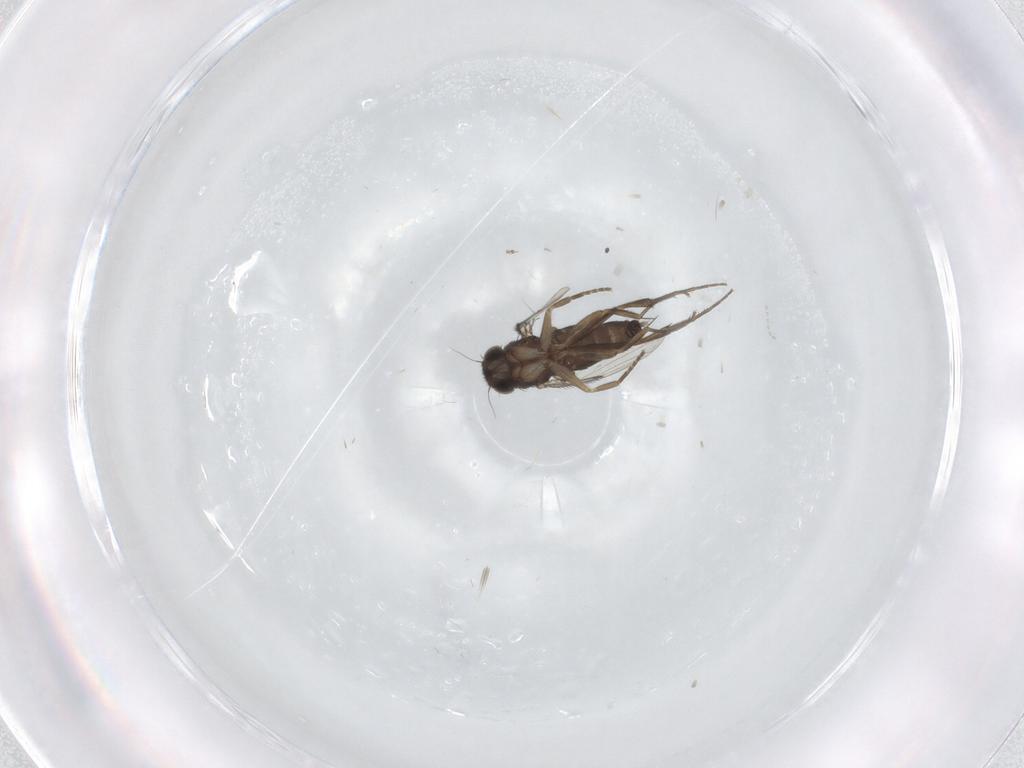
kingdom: Animalia
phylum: Arthropoda
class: Insecta
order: Diptera
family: Phoridae
